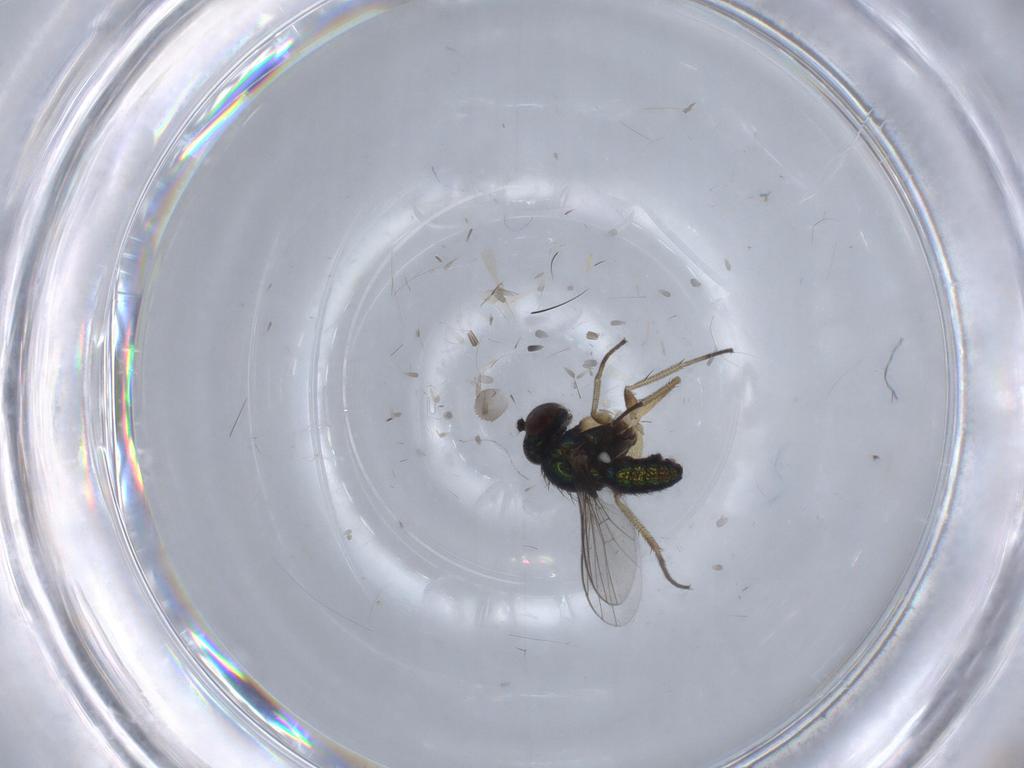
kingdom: Animalia
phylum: Arthropoda
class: Insecta
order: Diptera
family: Dolichopodidae
